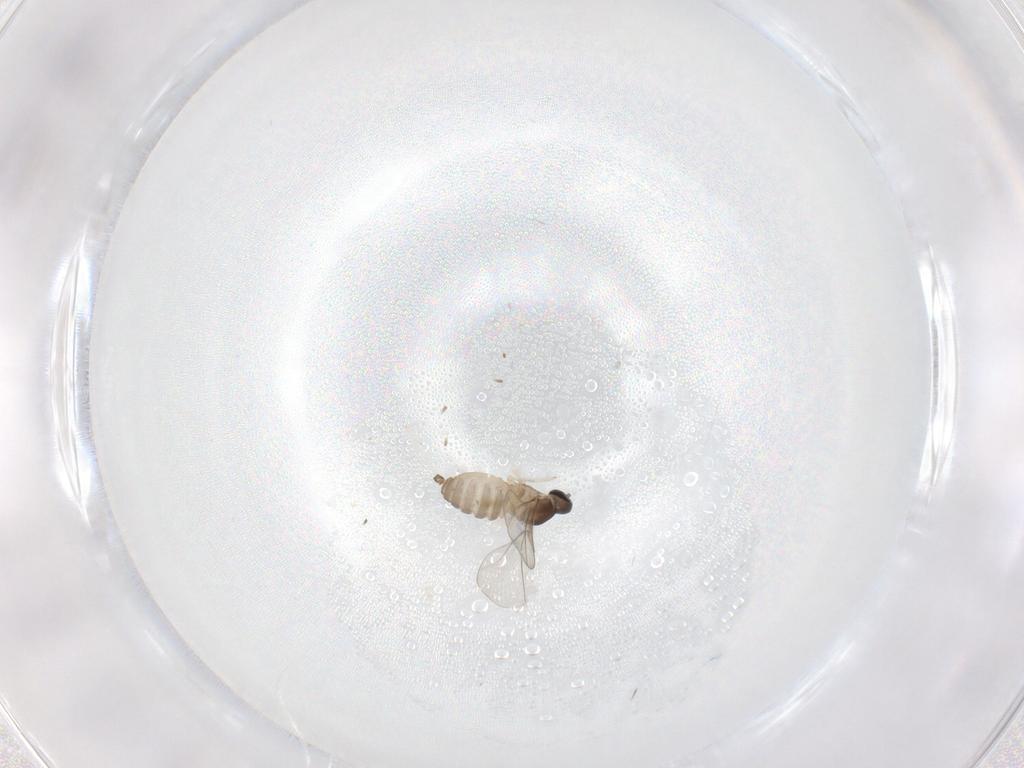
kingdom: Animalia
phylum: Arthropoda
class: Insecta
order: Diptera
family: Cecidomyiidae
